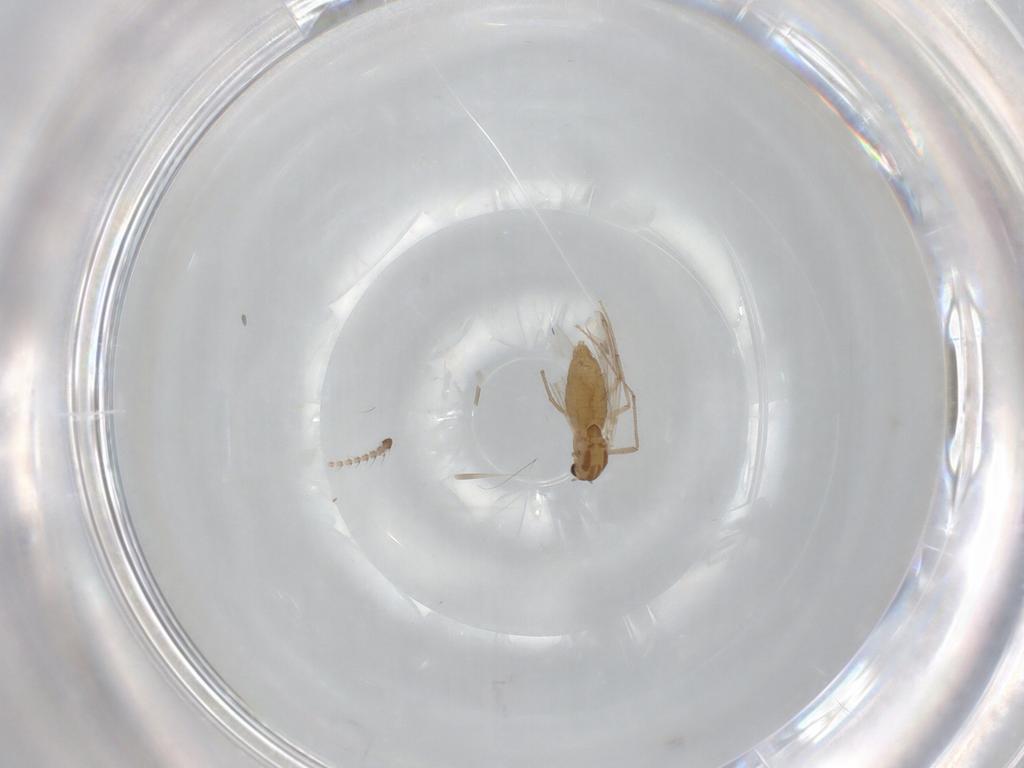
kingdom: Animalia
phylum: Arthropoda
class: Insecta
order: Diptera
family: Chironomidae
